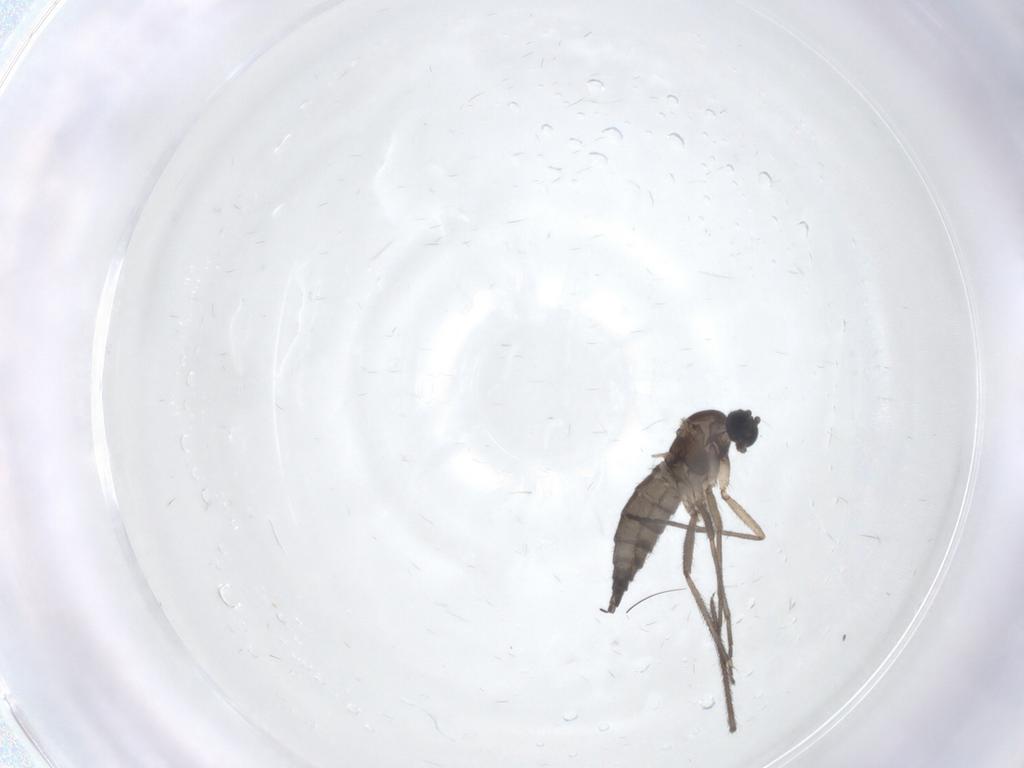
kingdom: Animalia
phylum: Arthropoda
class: Insecta
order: Diptera
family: Sciaridae
